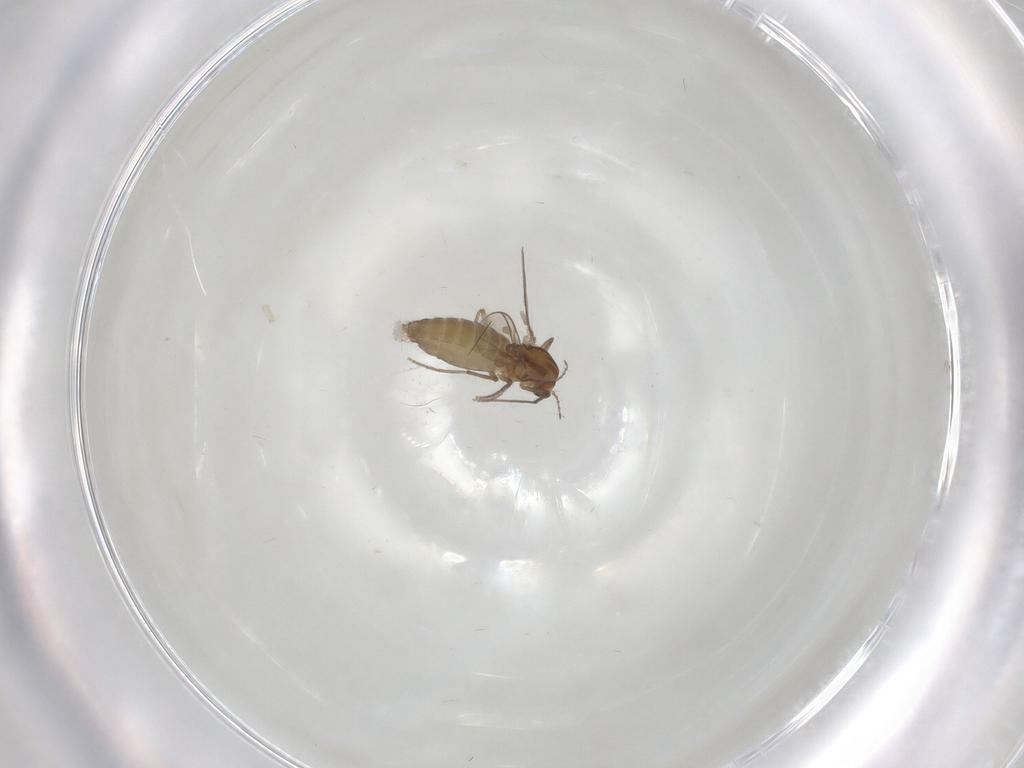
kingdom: Animalia
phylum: Arthropoda
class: Insecta
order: Diptera
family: Chironomidae
